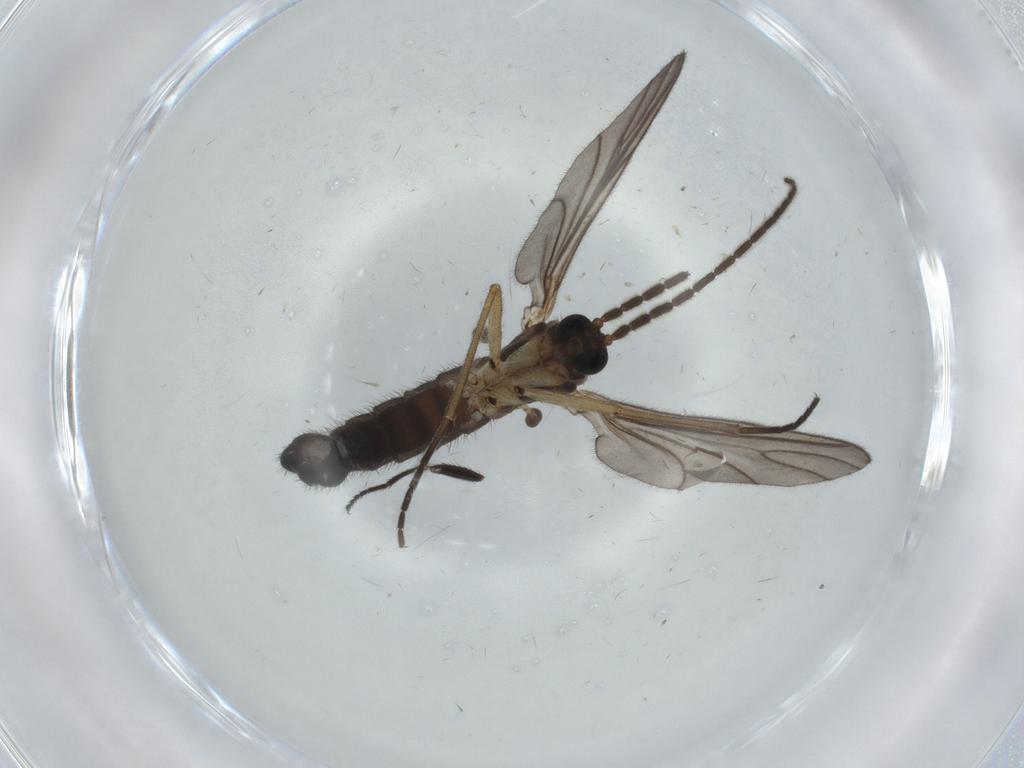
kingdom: Animalia
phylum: Arthropoda
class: Insecta
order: Diptera
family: Sciaridae
